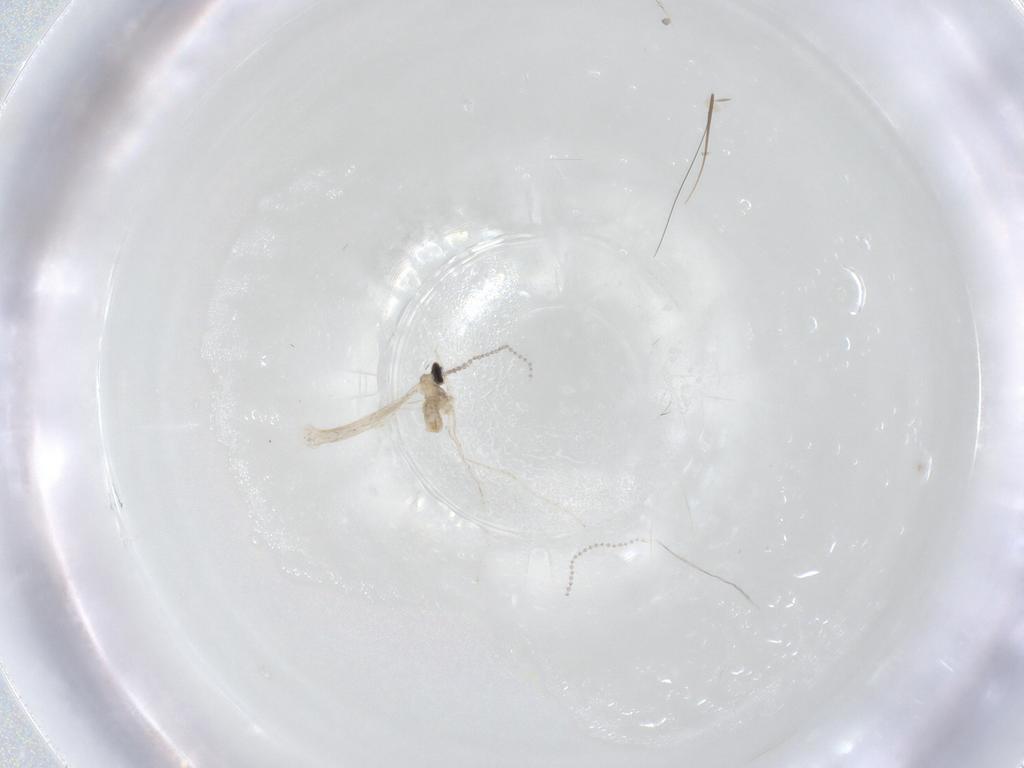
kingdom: Animalia
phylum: Arthropoda
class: Insecta
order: Diptera
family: Cecidomyiidae
